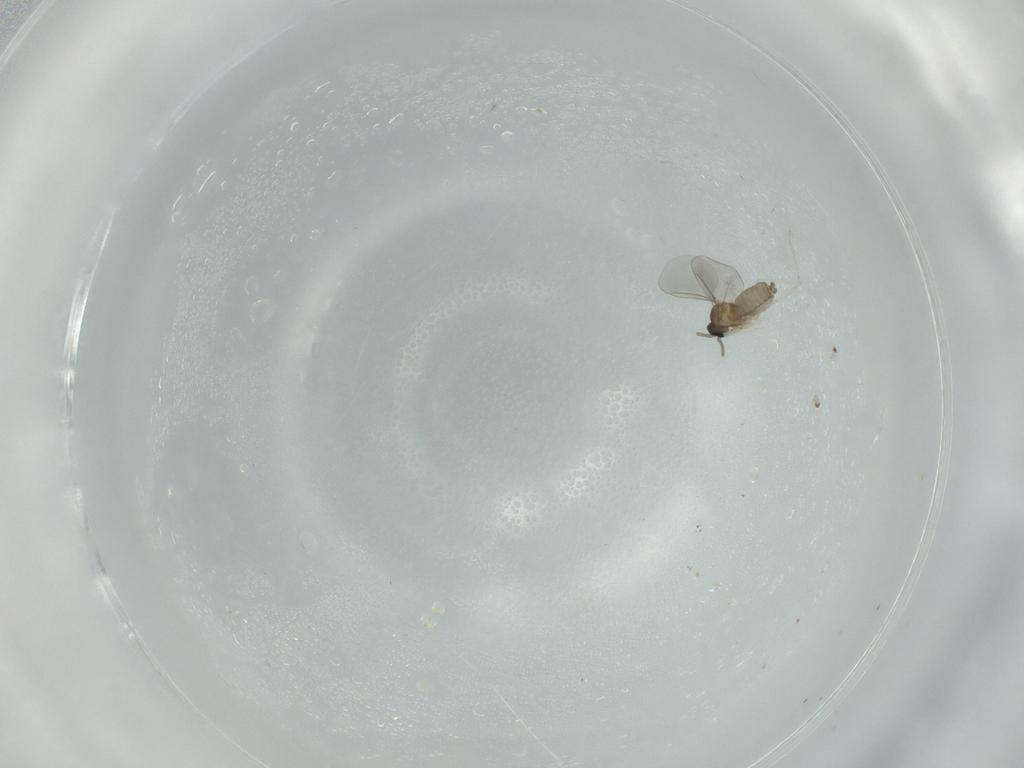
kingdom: Animalia
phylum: Arthropoda
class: Insecta
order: Diptera
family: Cecidomyiidae
